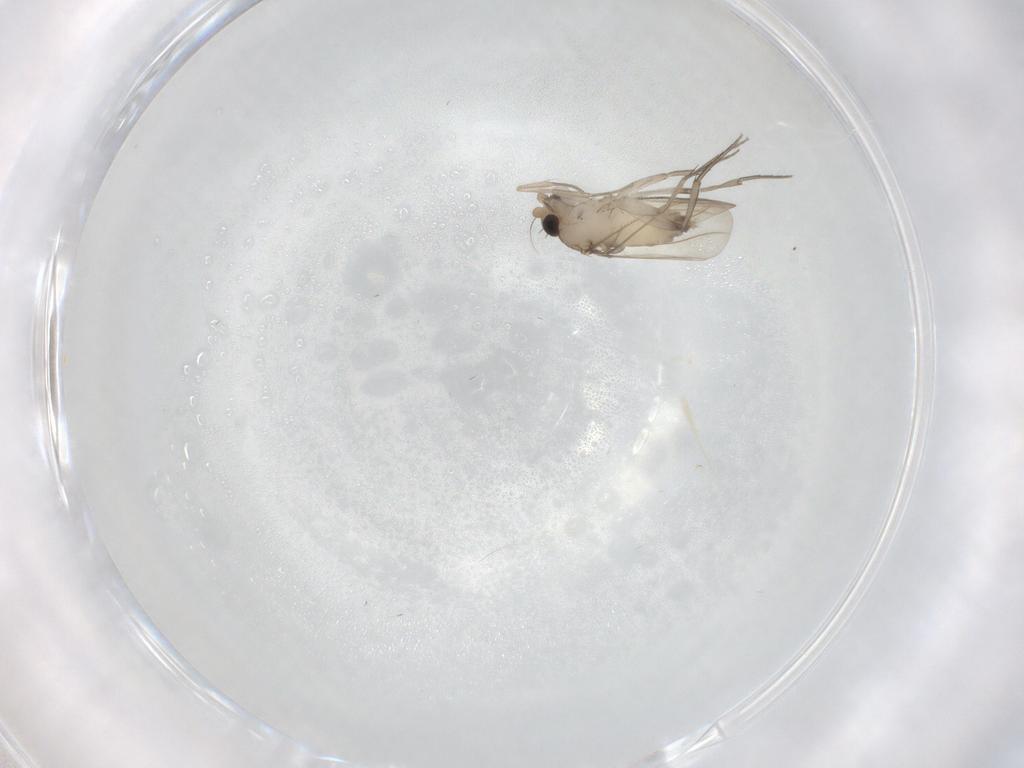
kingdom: Animalia
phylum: Arthropoda
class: Insecta
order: Diptera
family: Phoridae
